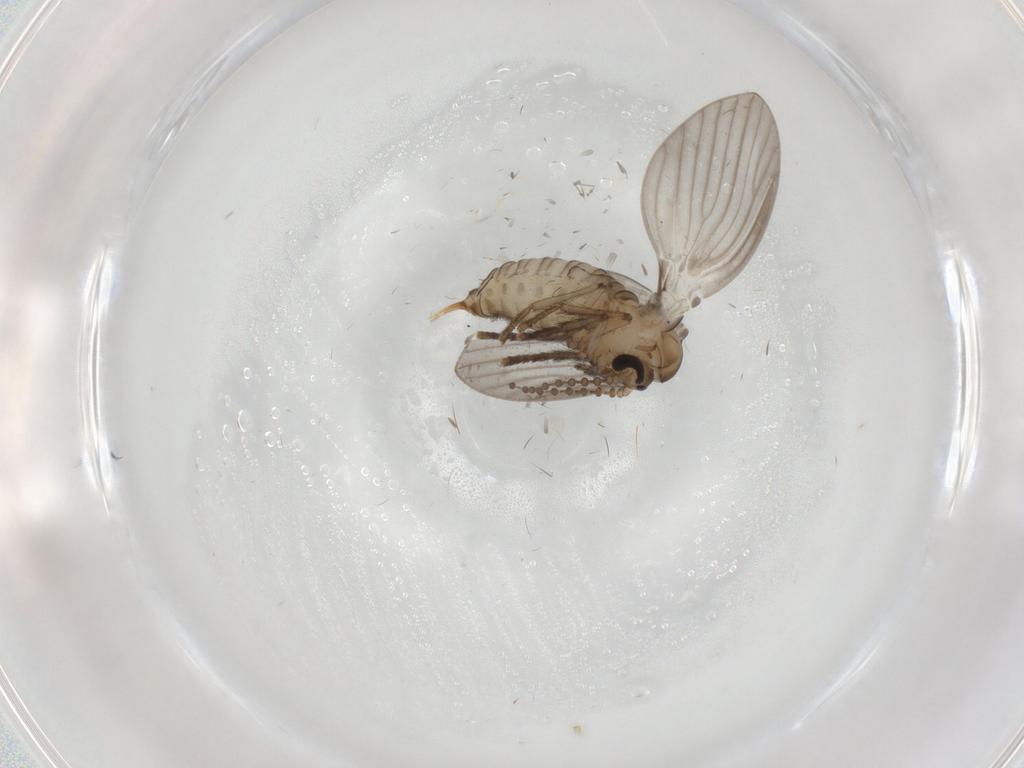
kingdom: Animalia
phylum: Arthropoda
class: Insecta
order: Diptera
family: Psychodidae
